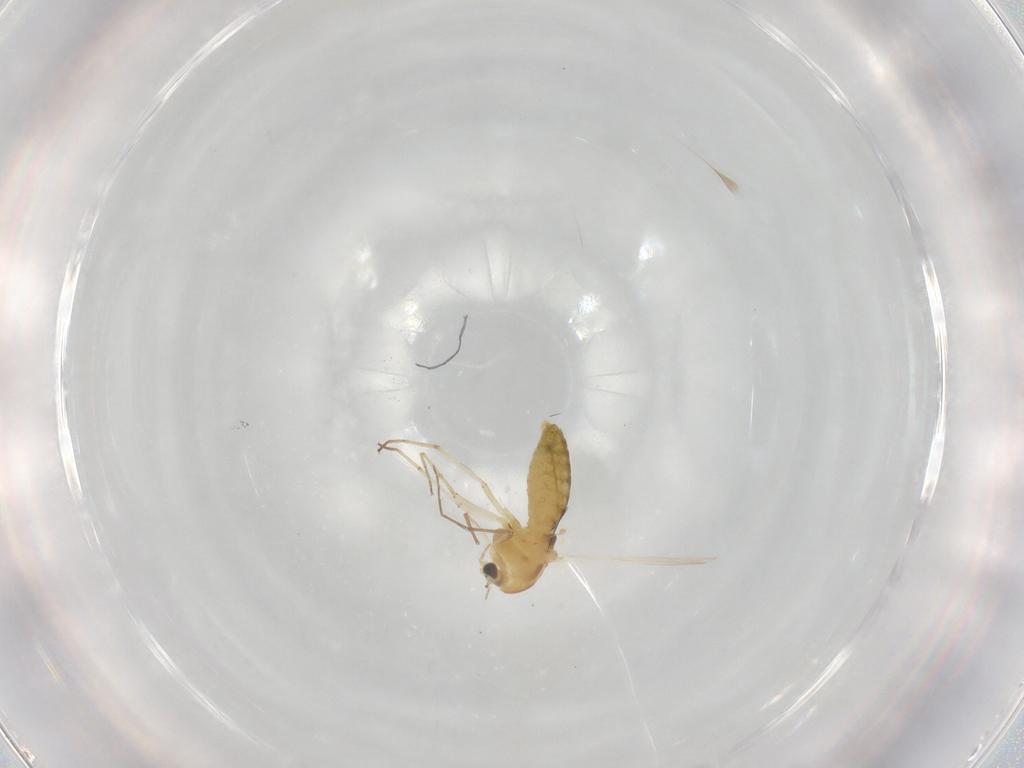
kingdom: Animalia
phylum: Arthropoda
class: Insecta
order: Diptera
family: Chironomidae
